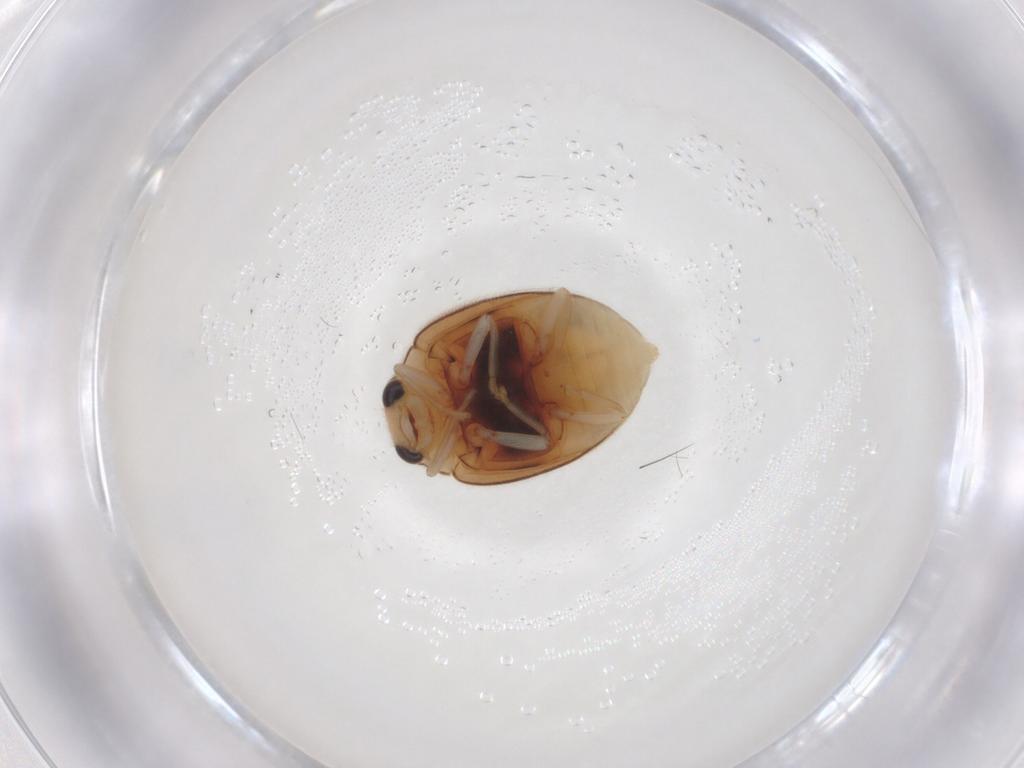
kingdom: Animalia
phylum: Arthropoda
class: Insecta
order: Coleoptera
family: Coccinellidae
